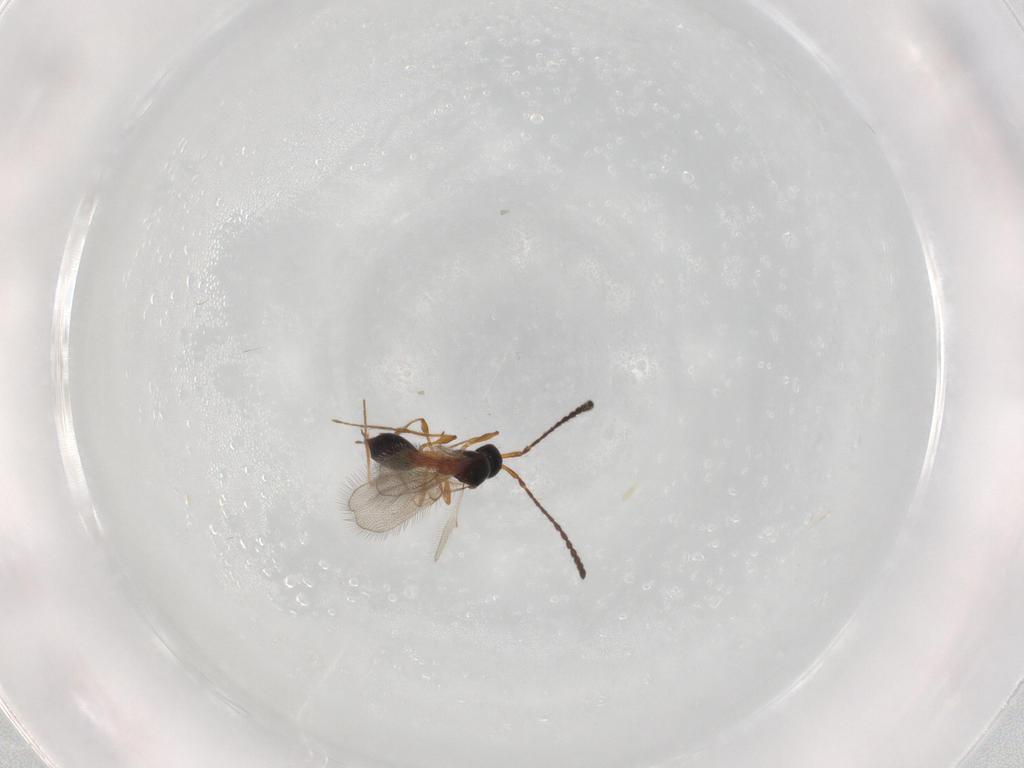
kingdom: Animalia
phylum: Arthropoda
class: Insecta
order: Hymenoptera
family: Diapriidae
